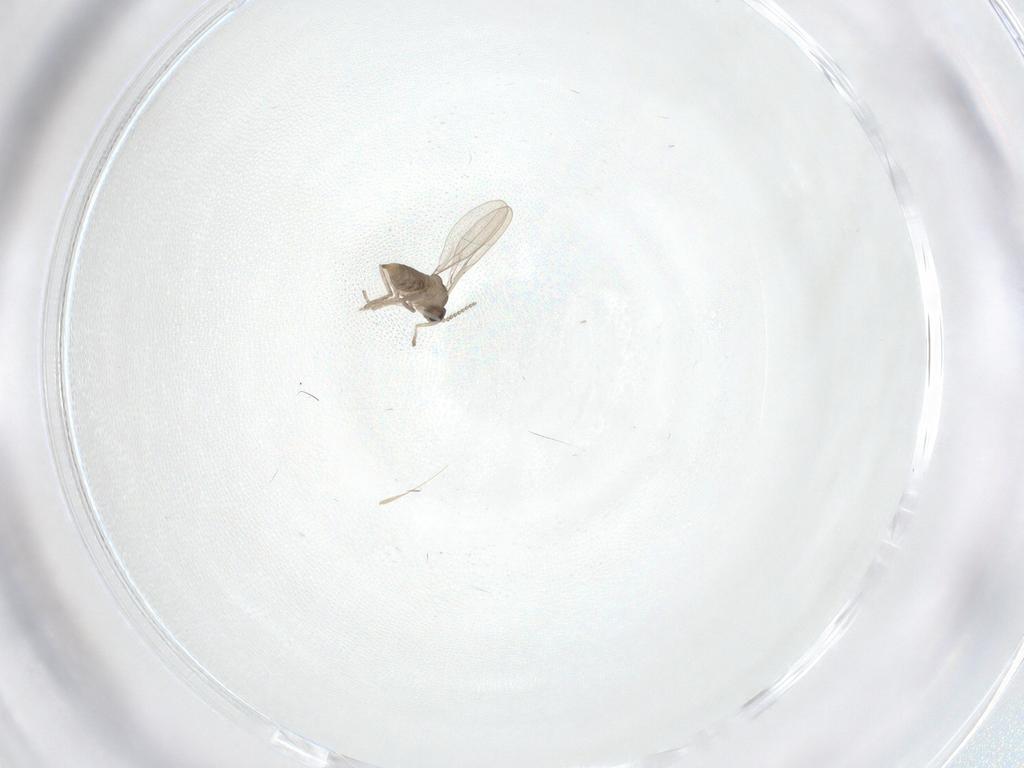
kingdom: Animalia
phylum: Arthropoda
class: Insecta
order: Diptera
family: Cecidomyiidae
